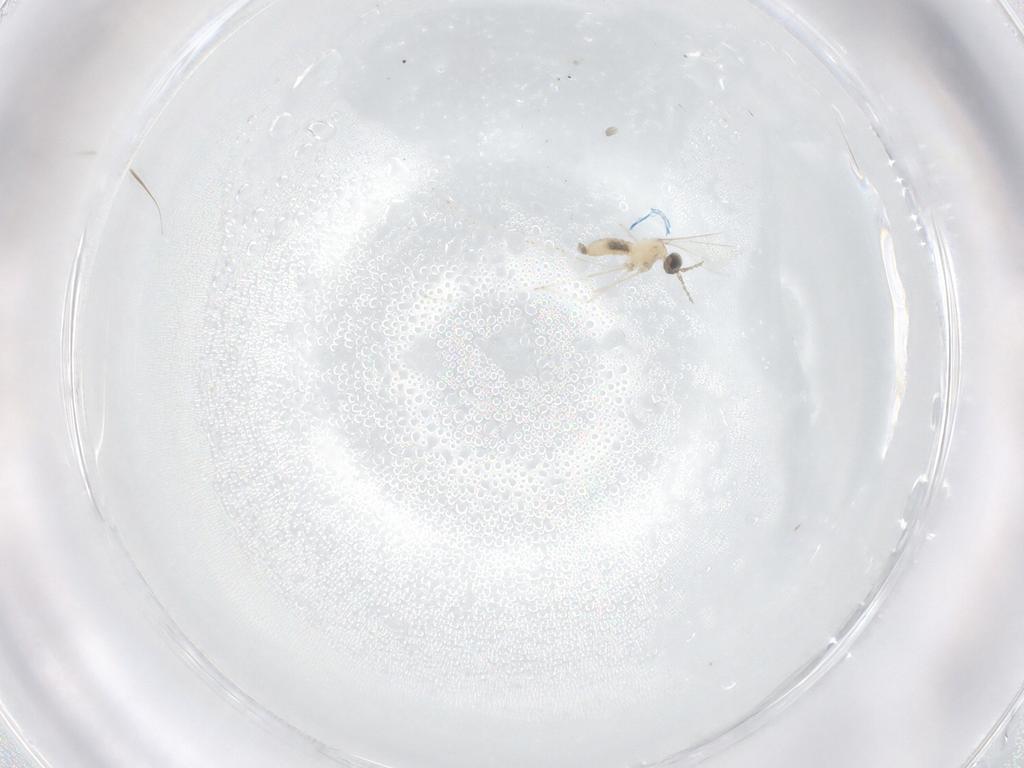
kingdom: Animalia
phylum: Arthropoda
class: Insecta
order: Diptera
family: Cecidomyiidae
